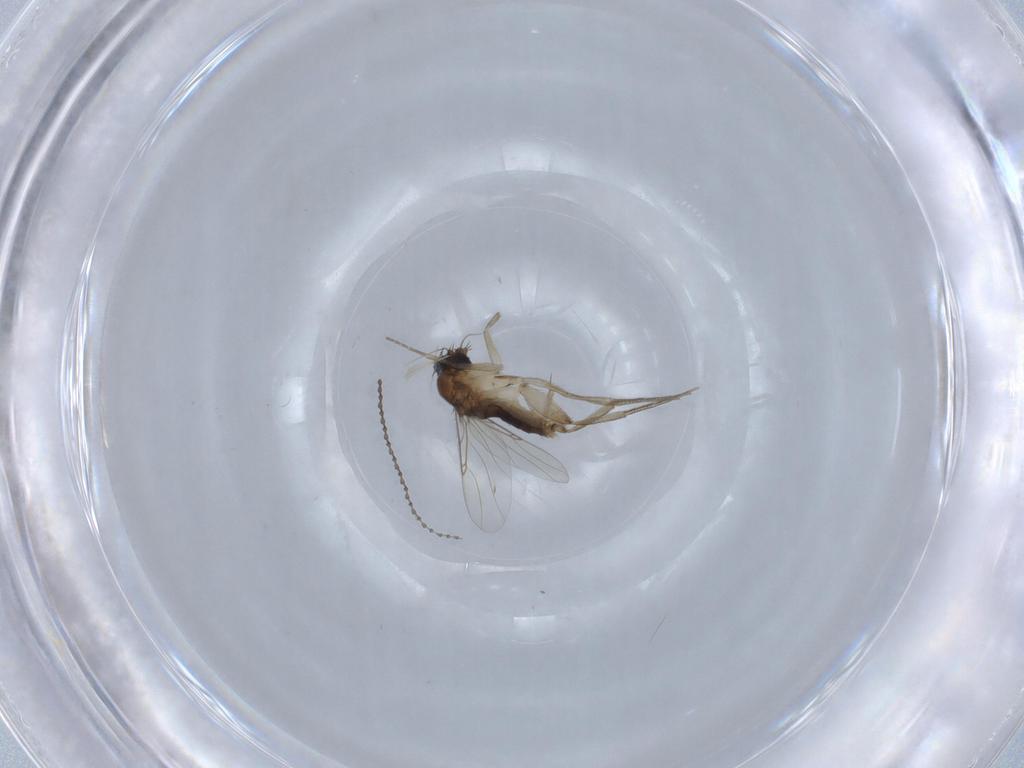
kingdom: Animalia
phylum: Arthropoda
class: Insecta
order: Diptera
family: Cecidomyiidae
